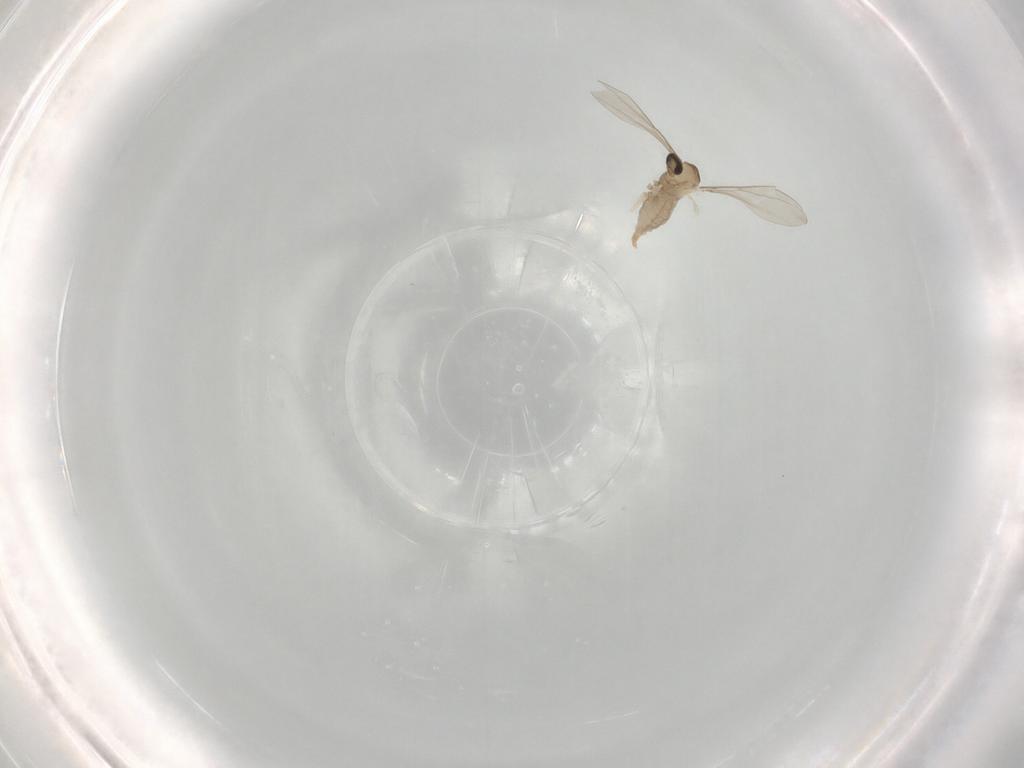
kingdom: Animalia
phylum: Arthropoda
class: Insecta
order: Diptera
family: Cecidomyiidae
